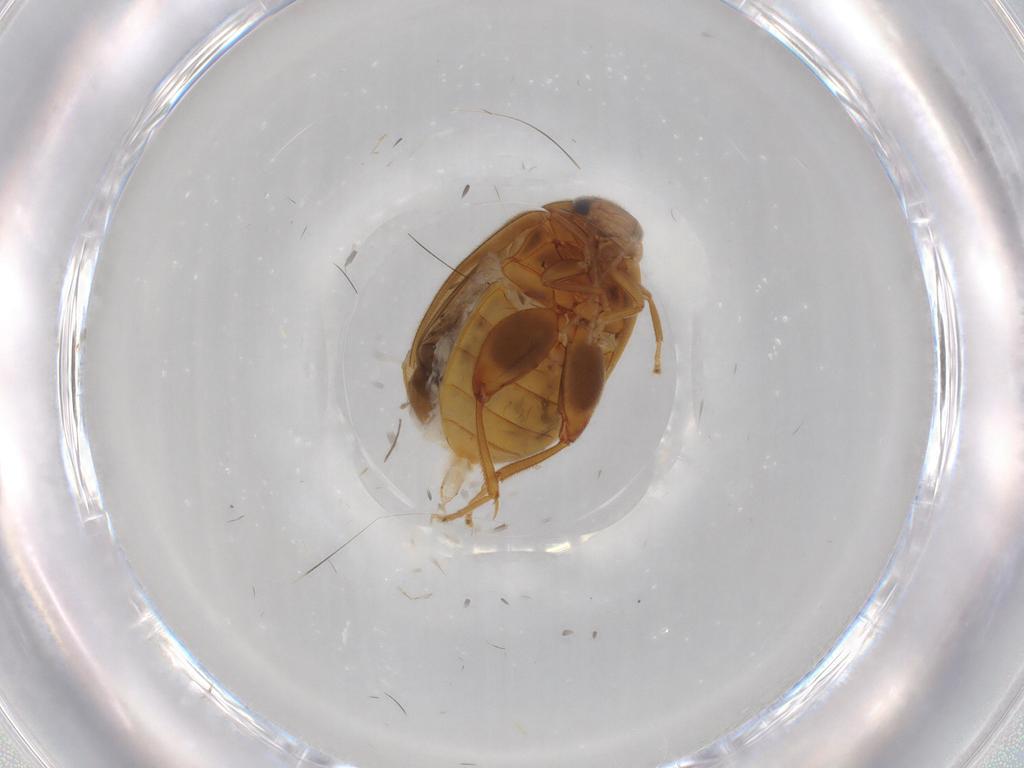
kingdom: Animalia
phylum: Arthropoda
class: Insecta
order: Coleoptera
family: Scirtidae
